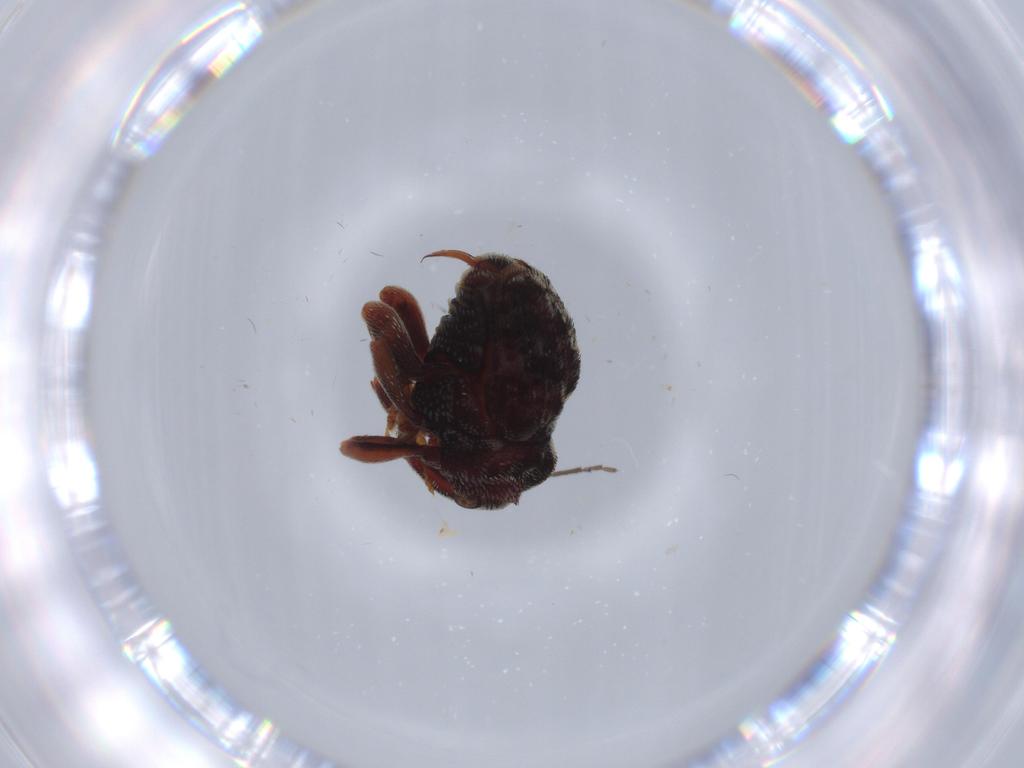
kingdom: Animalia
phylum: Arthropoda
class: Insecta
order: Coleoptera
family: Curculionidae
